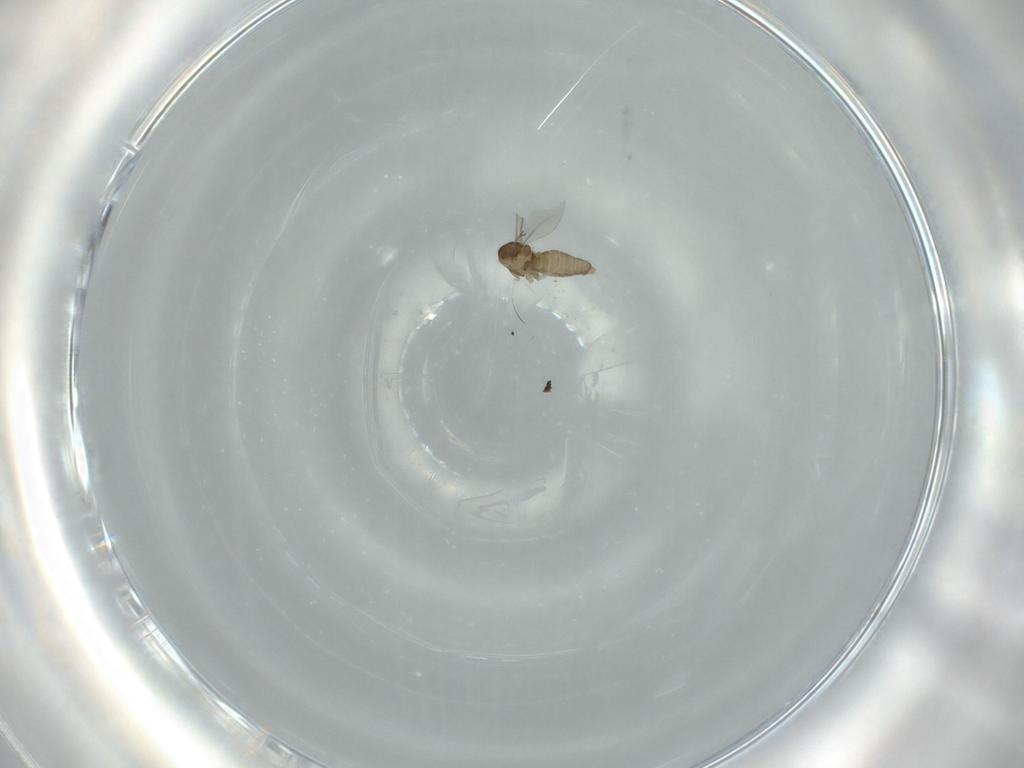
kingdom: Animalia
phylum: Arthropoda
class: Insecta
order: Diptera
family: Cecidomyiidae
